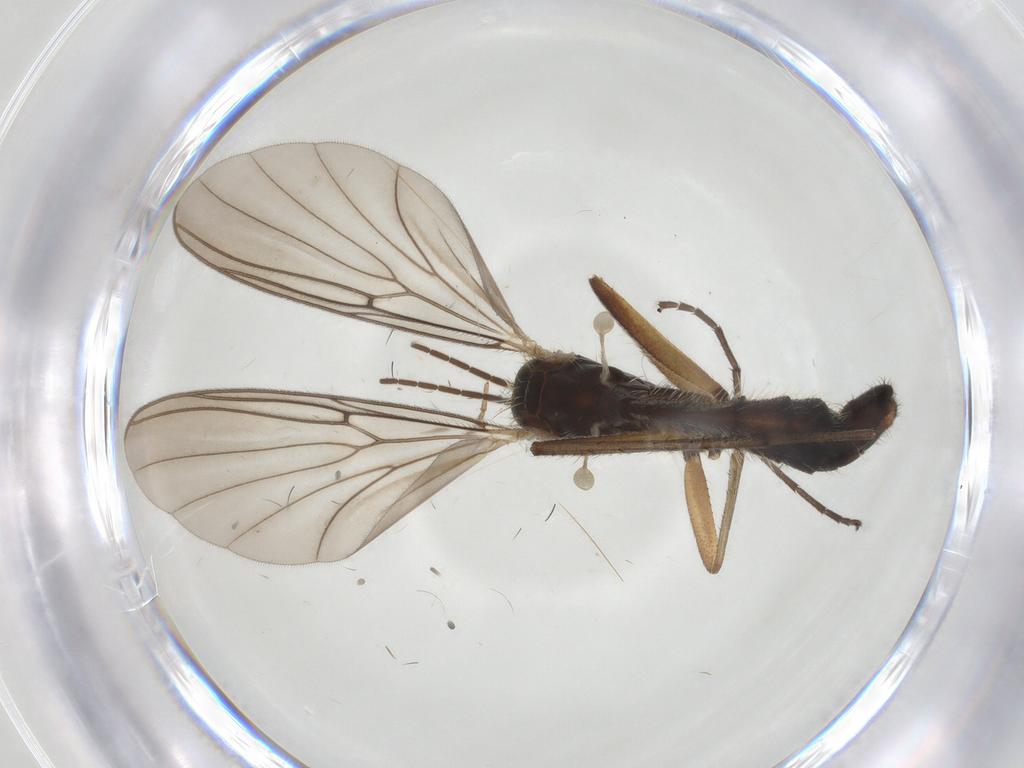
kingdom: Animalia
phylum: Arthropoda
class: Insecta
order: Diptera
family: Mycetophilidae
